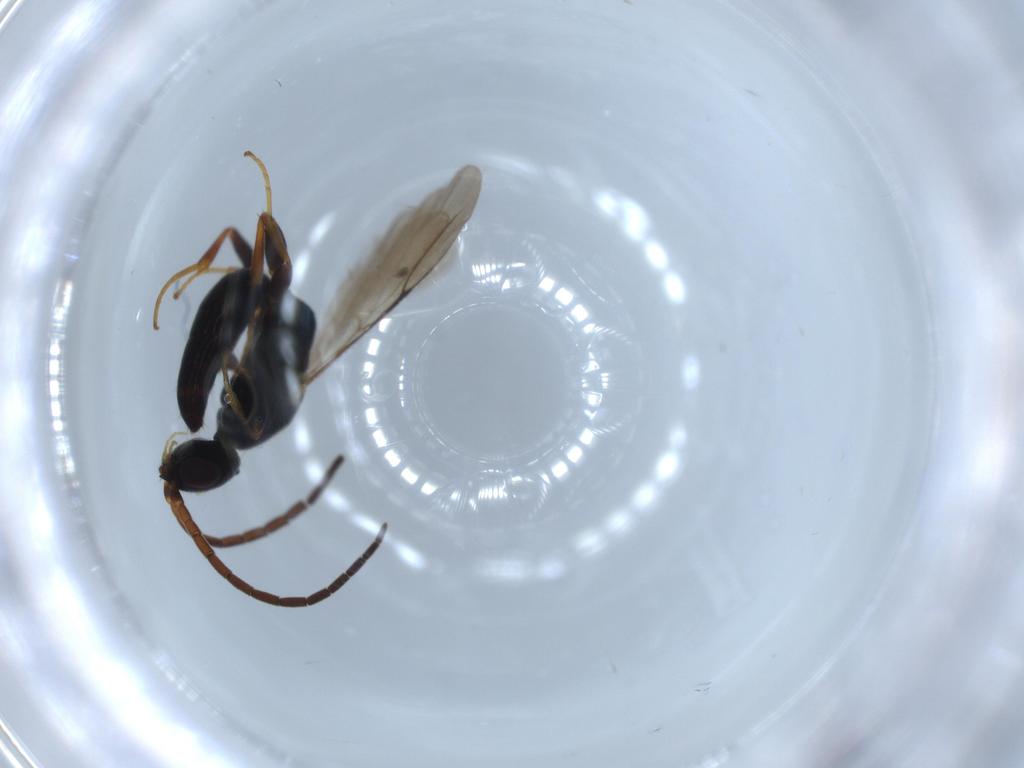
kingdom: Animalia
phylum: Arthropoda
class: Insecta
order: Hymenoptera
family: Bethylidae
